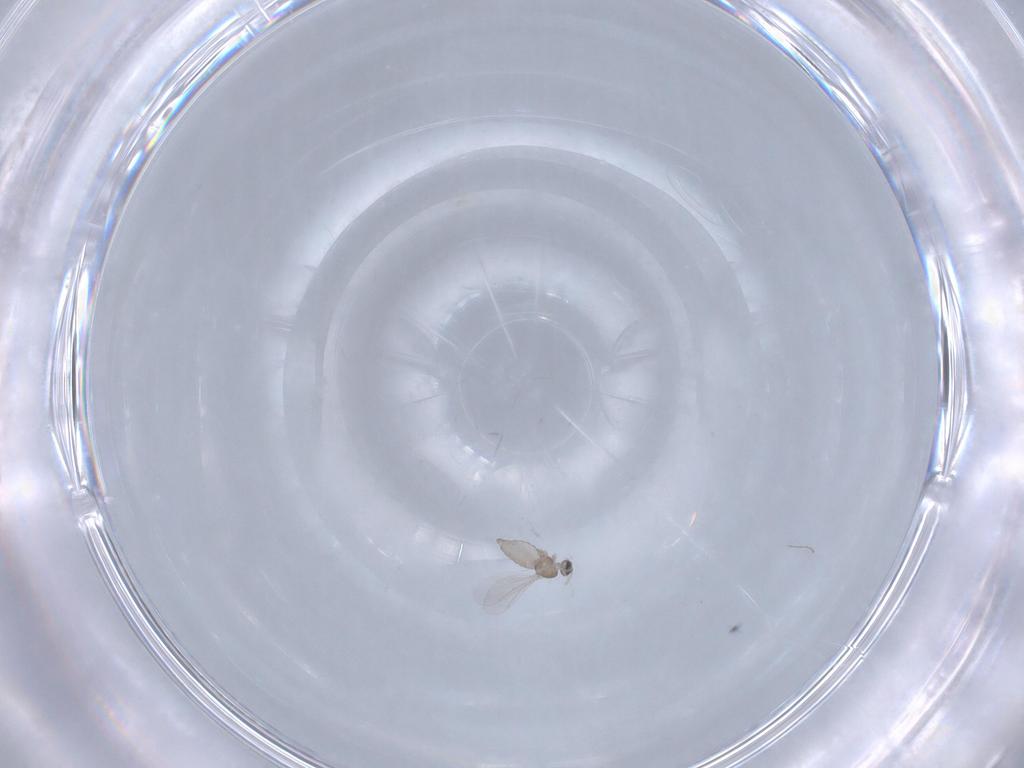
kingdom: Animalia
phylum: Arthropoda
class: Insecta
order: Diptera
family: Cecidomyiidae
